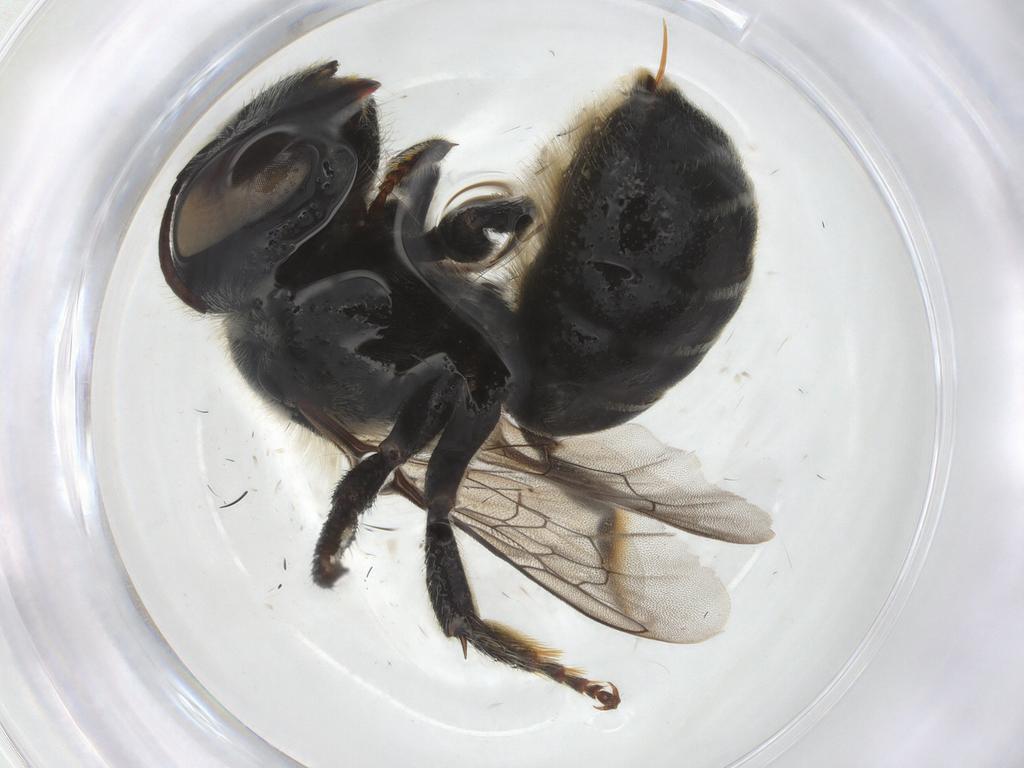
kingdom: Animalia
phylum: Arthropoda
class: Insecta
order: Hymenoptera
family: Megachilidae
